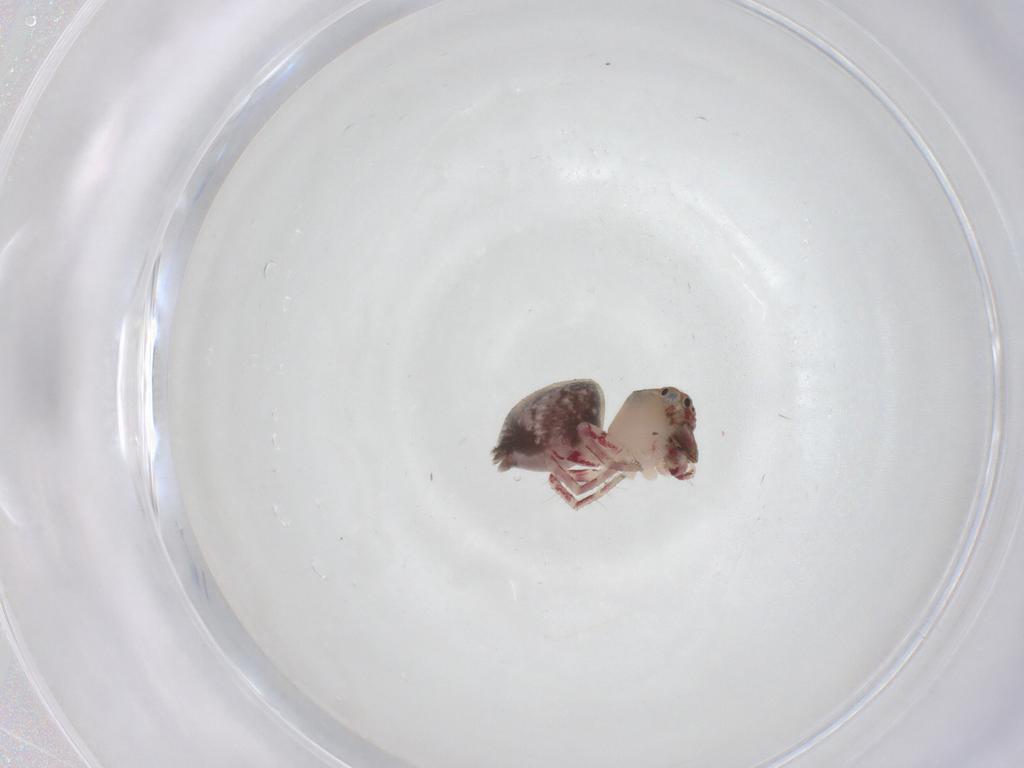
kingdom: Animalia
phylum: Arthropoda
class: Arachnida
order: Araneae
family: Thomisidae
